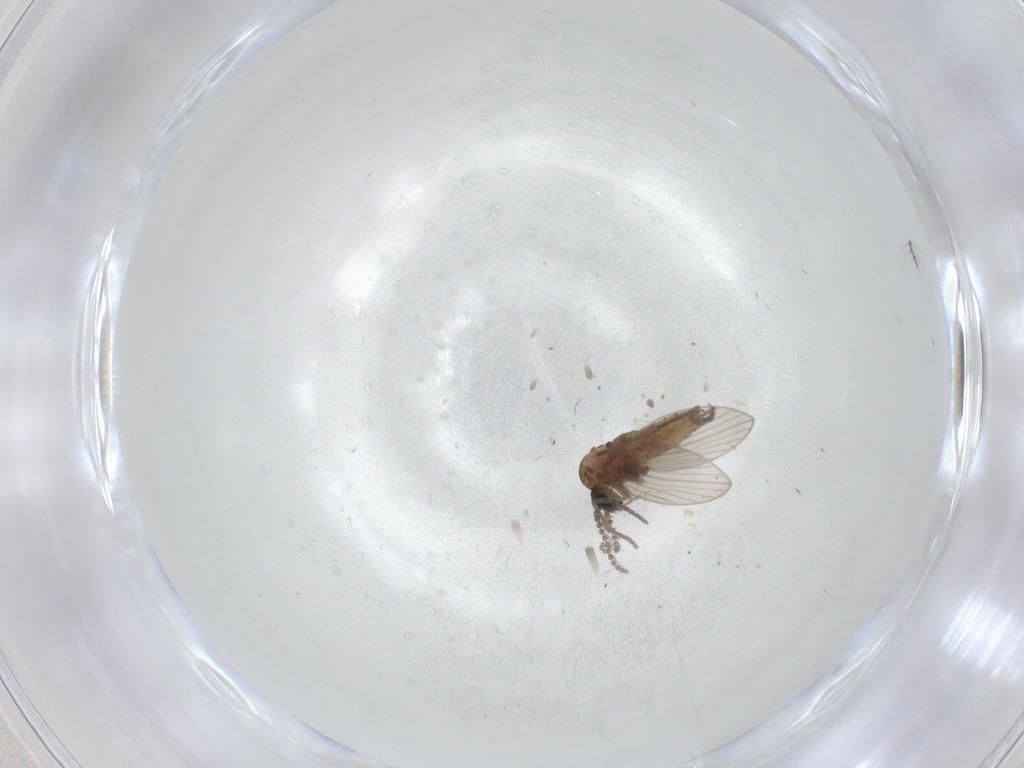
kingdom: Animalia
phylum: Arthropoda
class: Insecta
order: Diptera
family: Psychodidae
